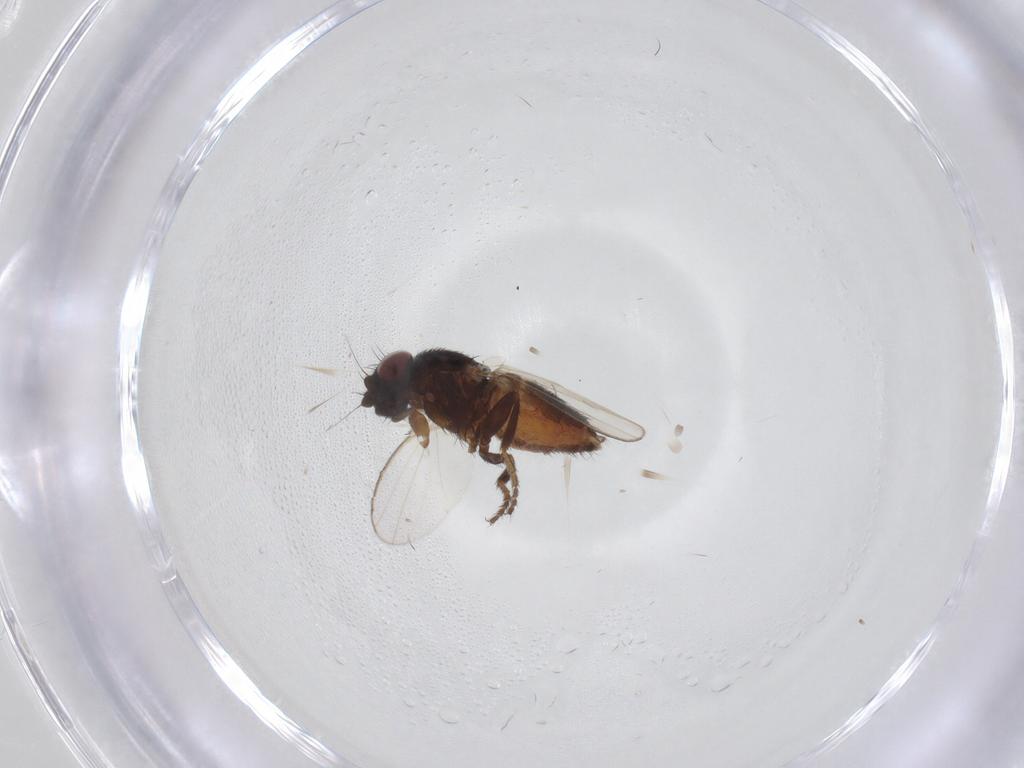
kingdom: Animalia
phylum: Arthropoda
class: Insecta
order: Diptera
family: Milichiidae
